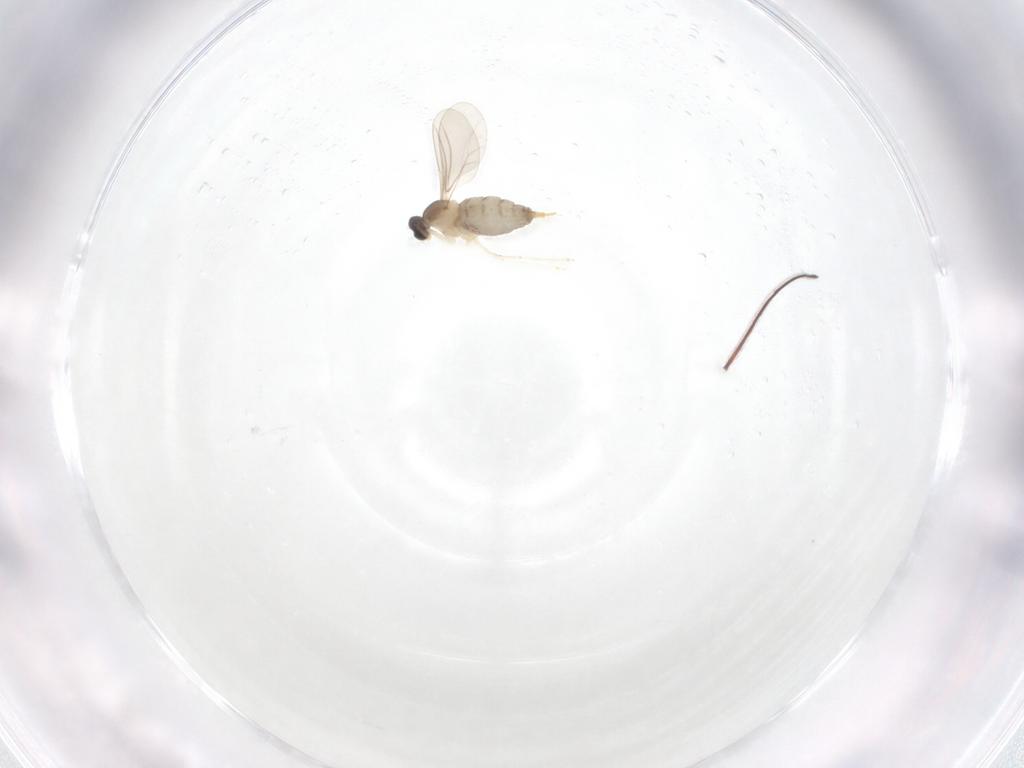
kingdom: Animalia
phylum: Arthropoda
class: Insecta
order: Diptera
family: Cecidomyiidae
